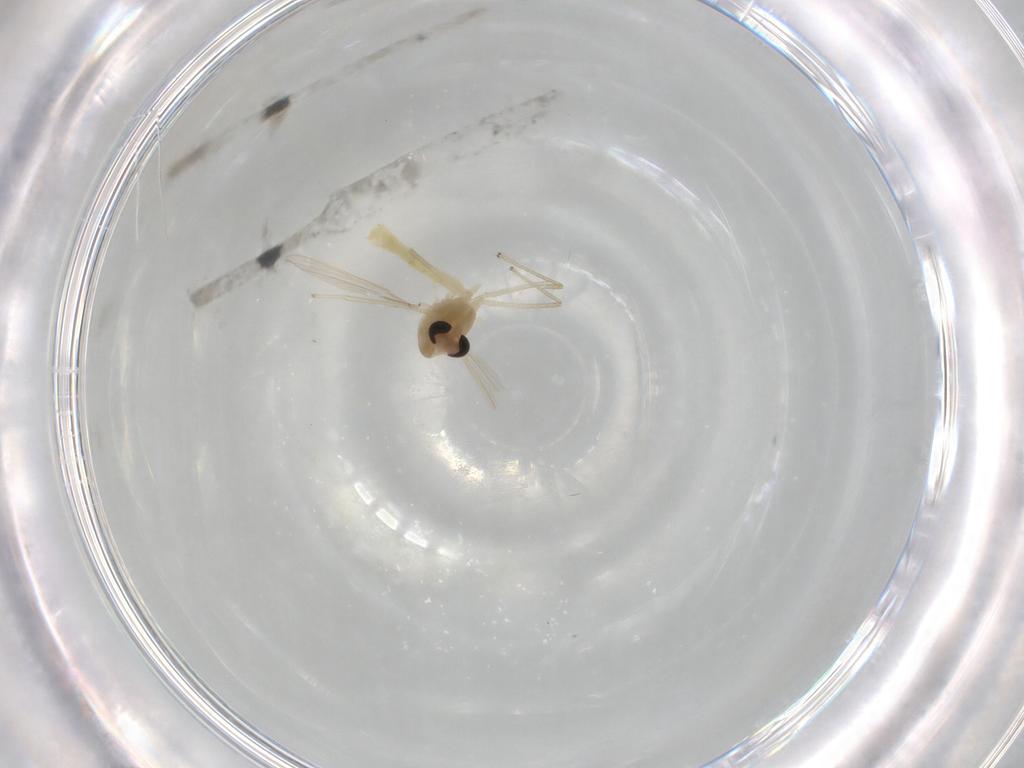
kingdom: Animalia
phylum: Arthropoda
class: Insecta
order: Diptera
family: Chironomidae
